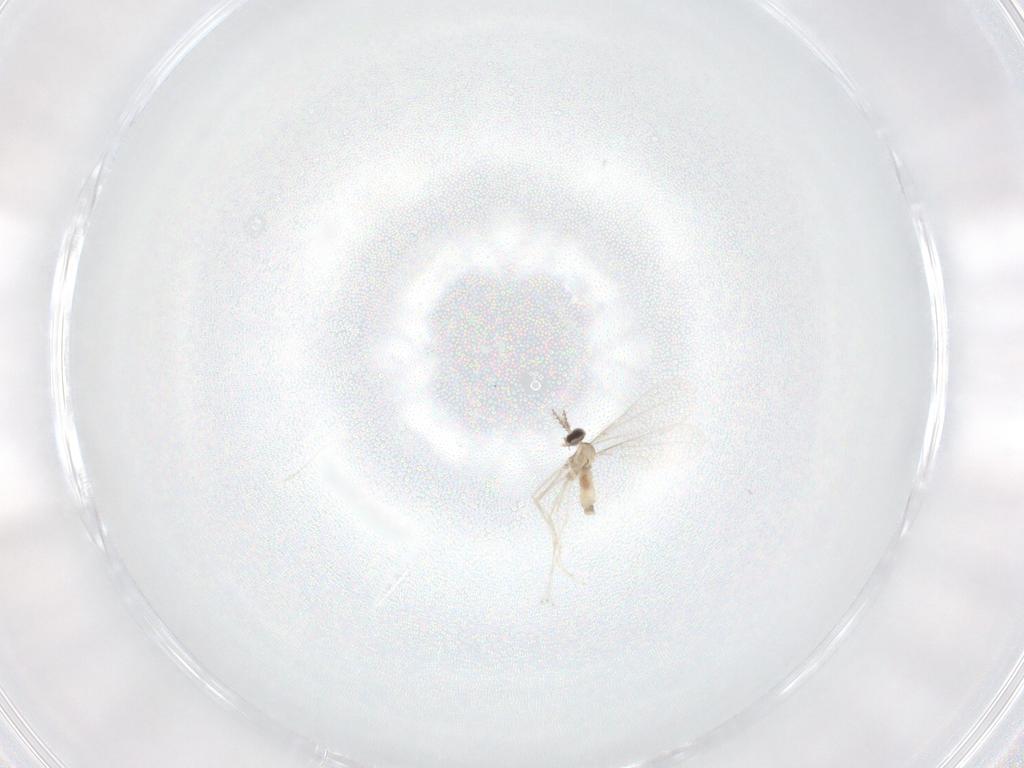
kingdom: Animalia
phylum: Arthropoda
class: Insecta
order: Diptera
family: Cecidomyiidae
